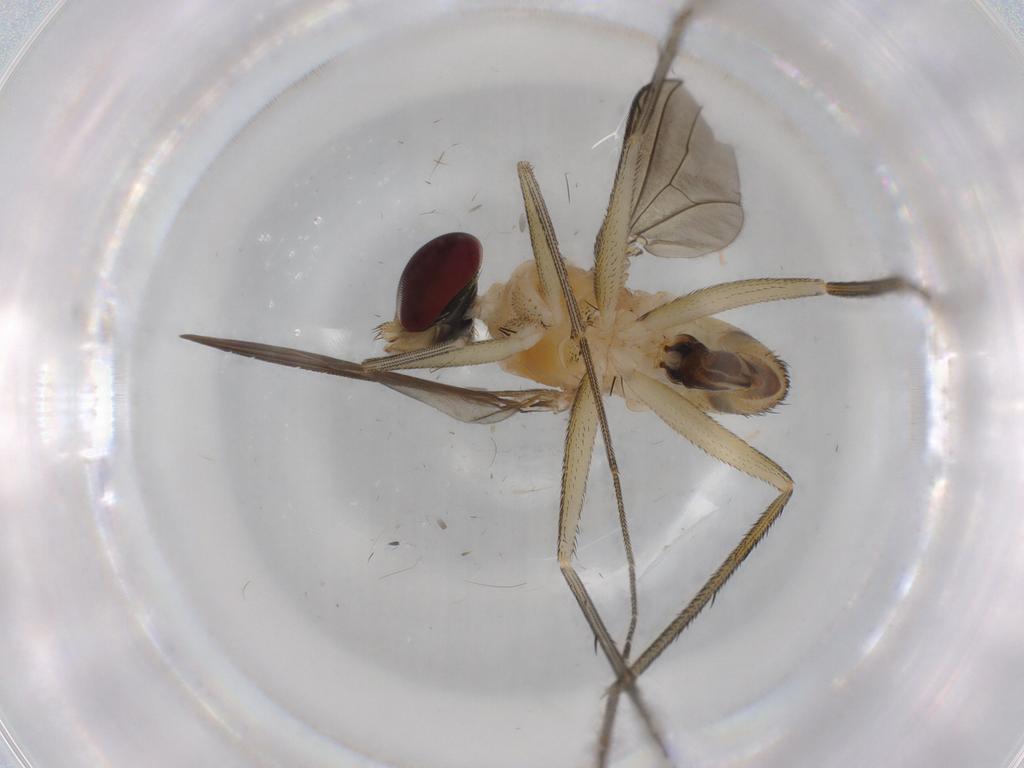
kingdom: Animalia
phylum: Arthropoda
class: Insecta
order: Diptera
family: Dolichopodidae
